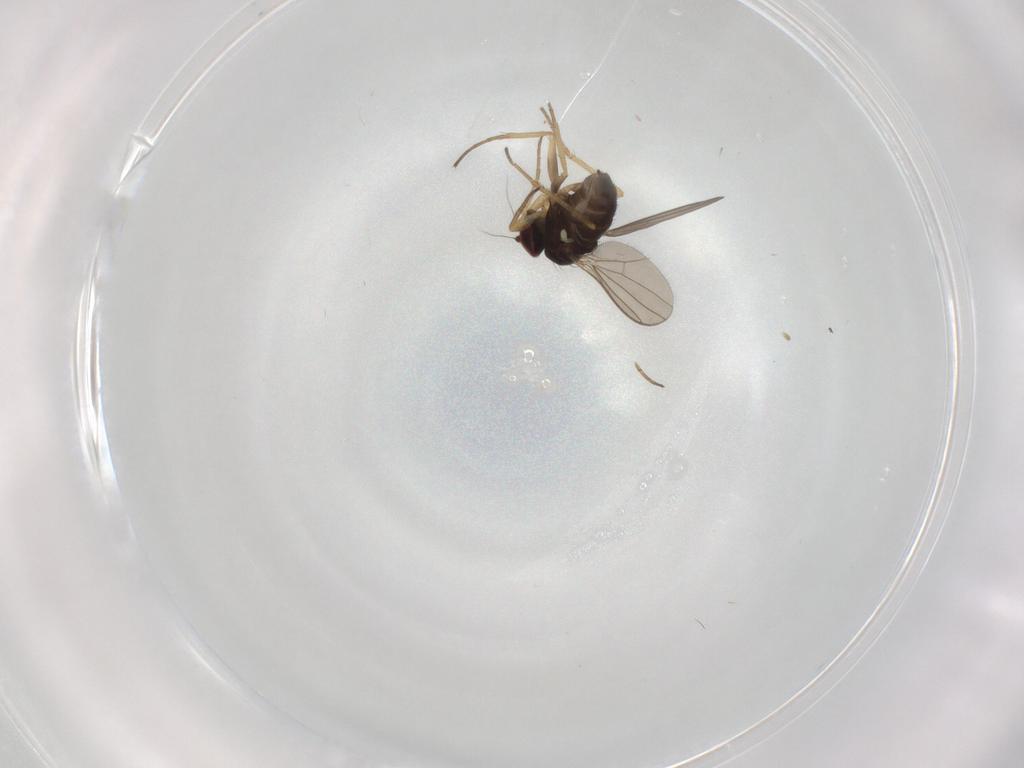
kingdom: Animalia
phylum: Arthropoda
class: Insecta
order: Diptera
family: Dolichopodidae
